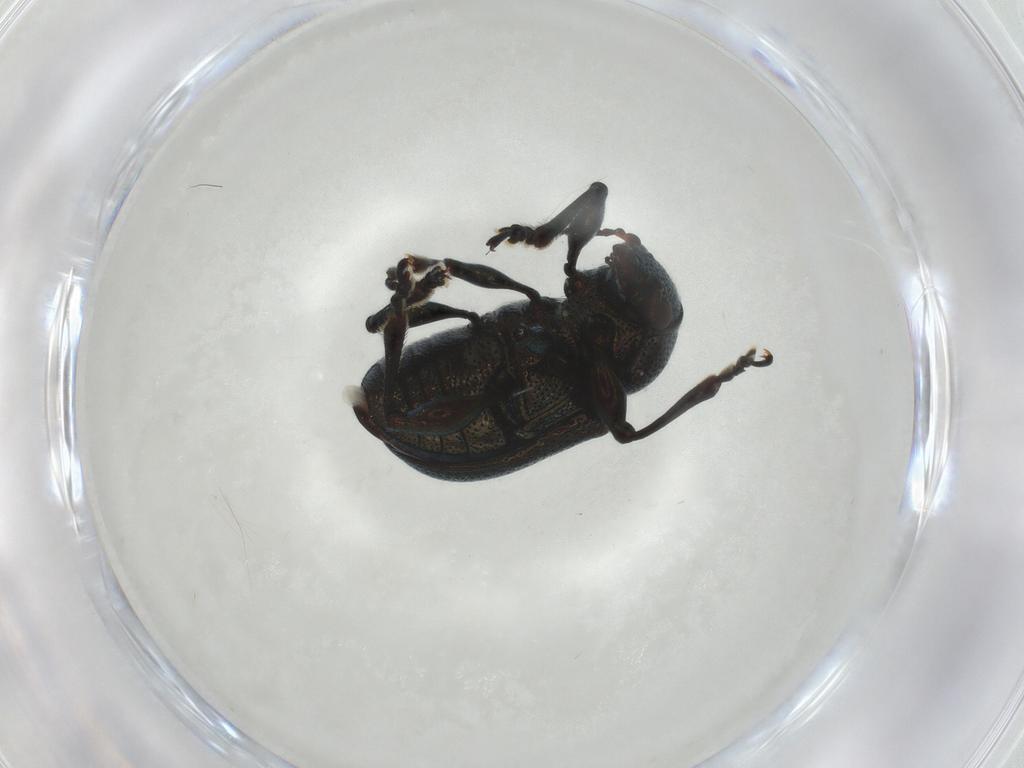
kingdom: Animalia
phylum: Arthropoda
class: Insecta
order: Coleoptera
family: Chrysomelidae
